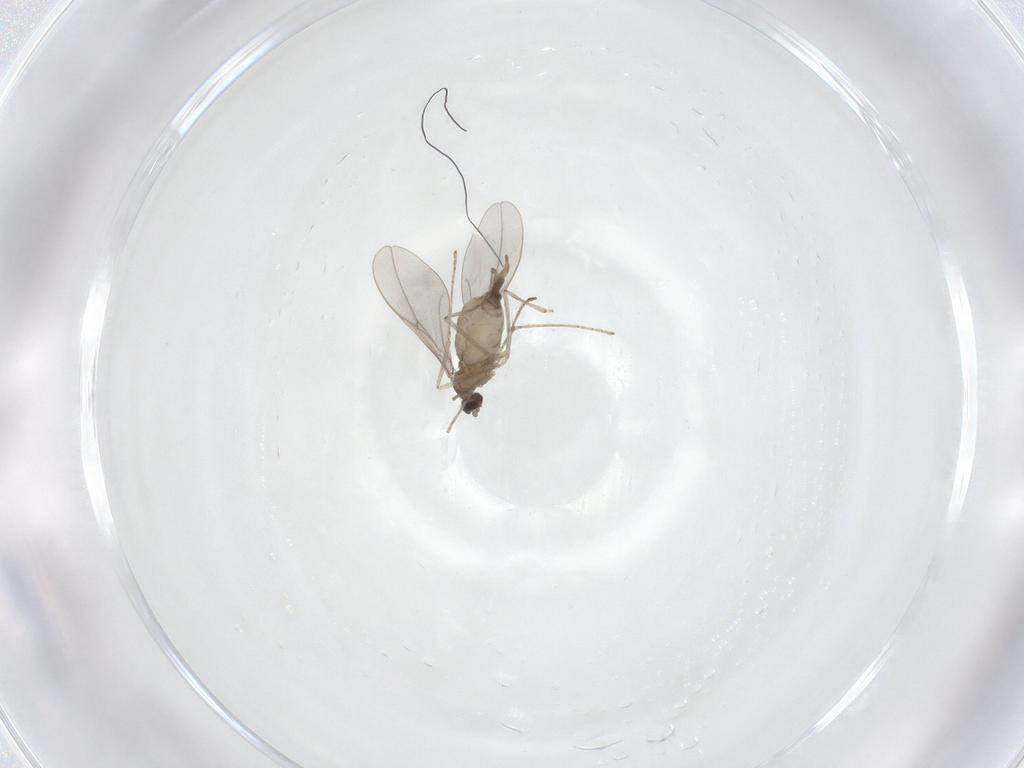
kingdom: Animalia
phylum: Arthropoda
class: Insecta
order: Diptera
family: Cecidomyiidae
